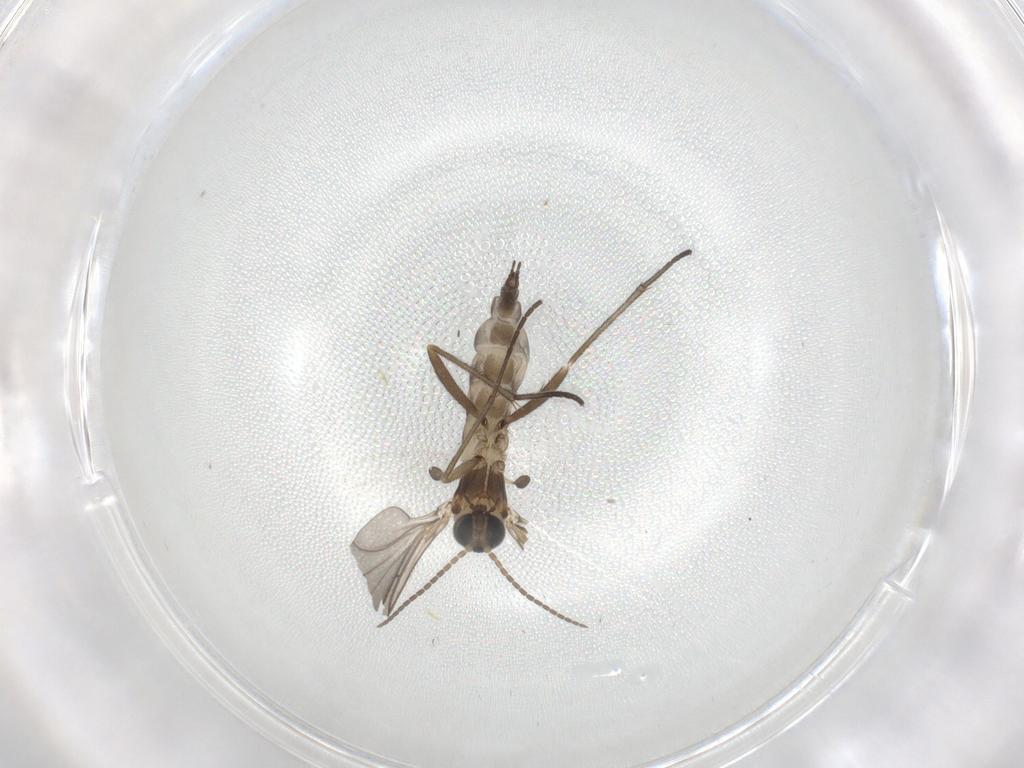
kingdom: Animalia
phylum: Arthropoda
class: Insecta
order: Diptera
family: Sciaridae
